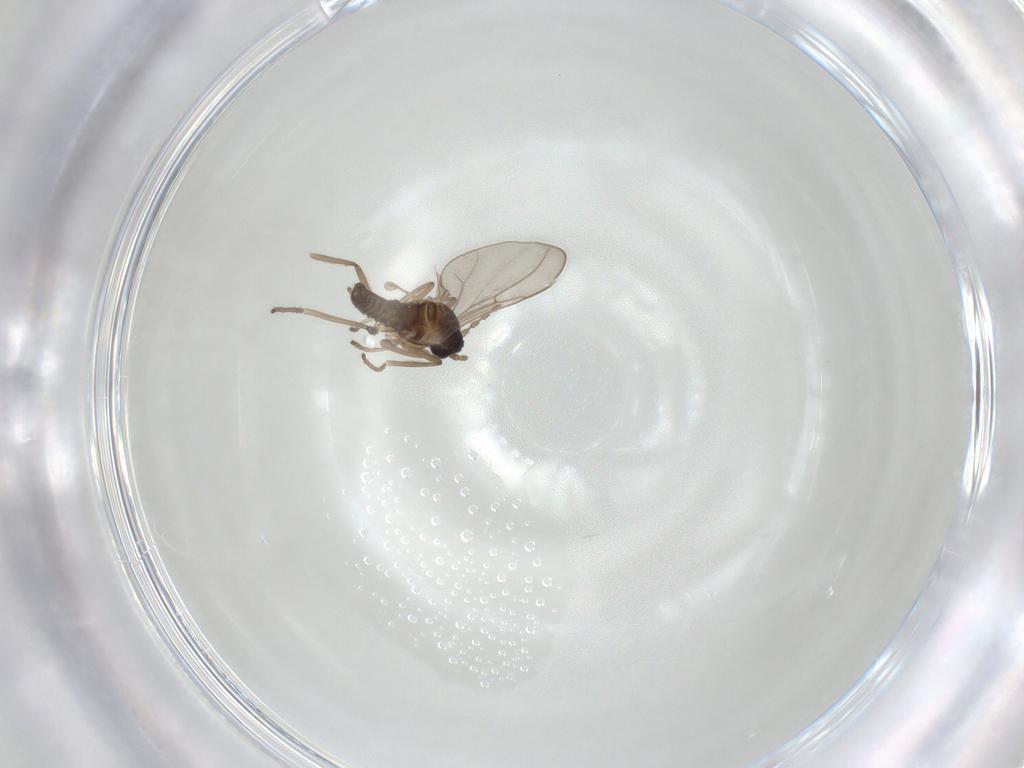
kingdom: Animalia
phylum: Arthropoda
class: Insecta
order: Diptera
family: Cecidomyiidae
